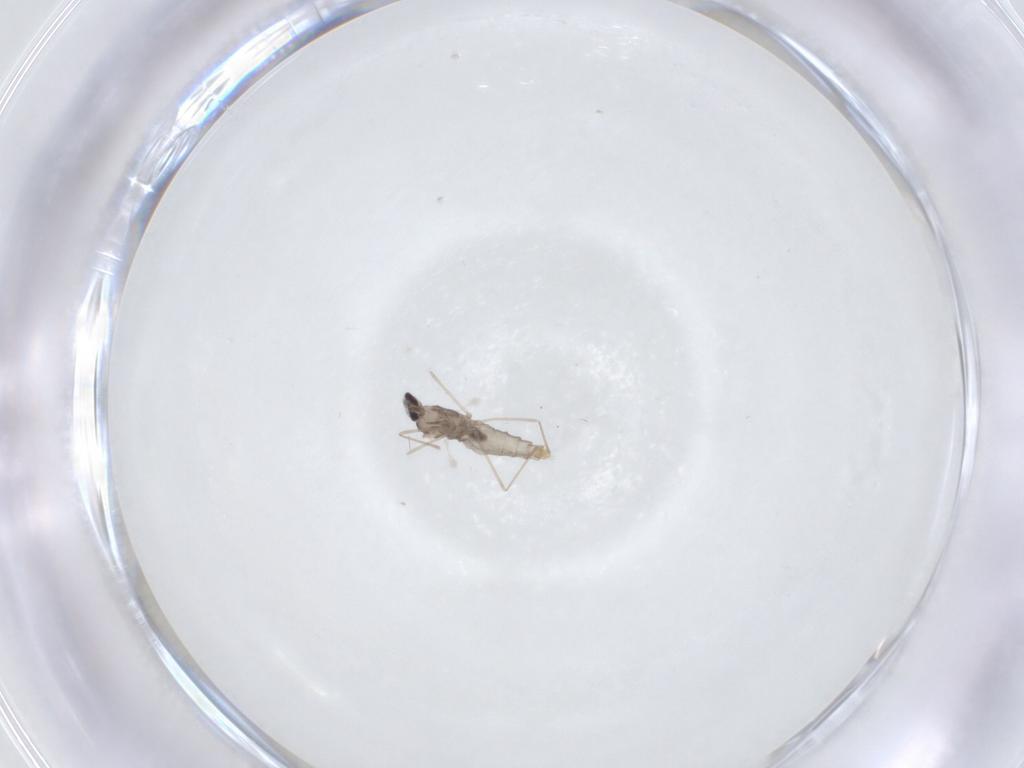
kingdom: Animalia
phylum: Arthropoda
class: Insecta
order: Diptera
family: Cecidomyiidae
